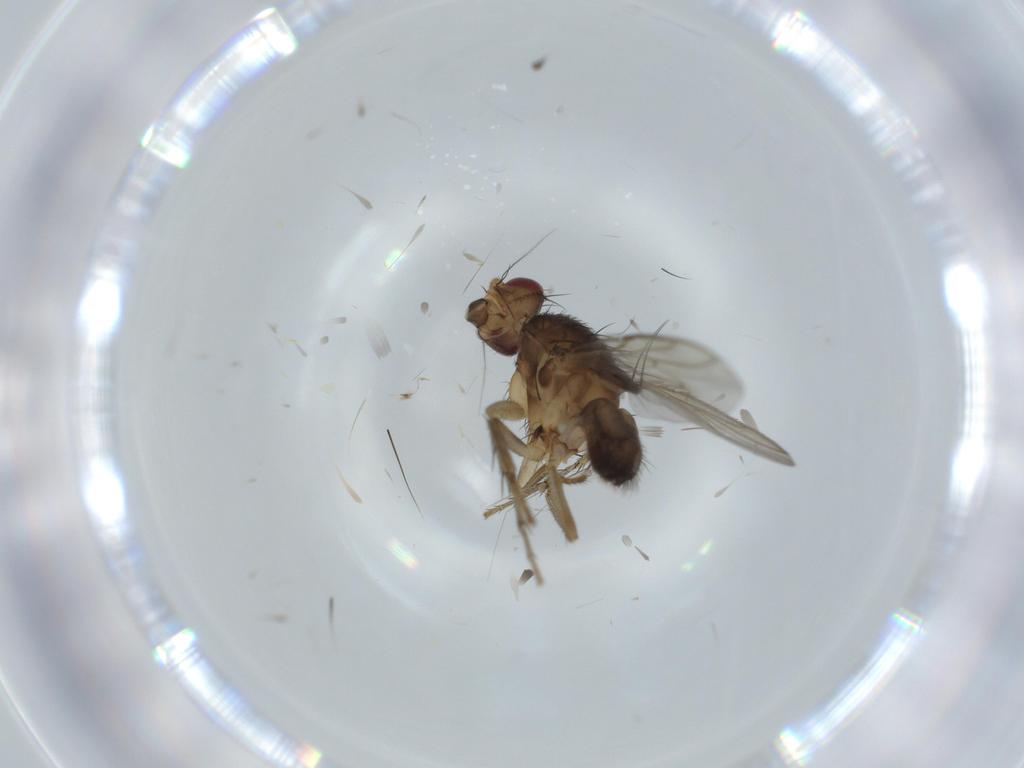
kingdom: Animalia
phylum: Arthropoda
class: Insecta
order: Diptera
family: Sphaeroceridae
